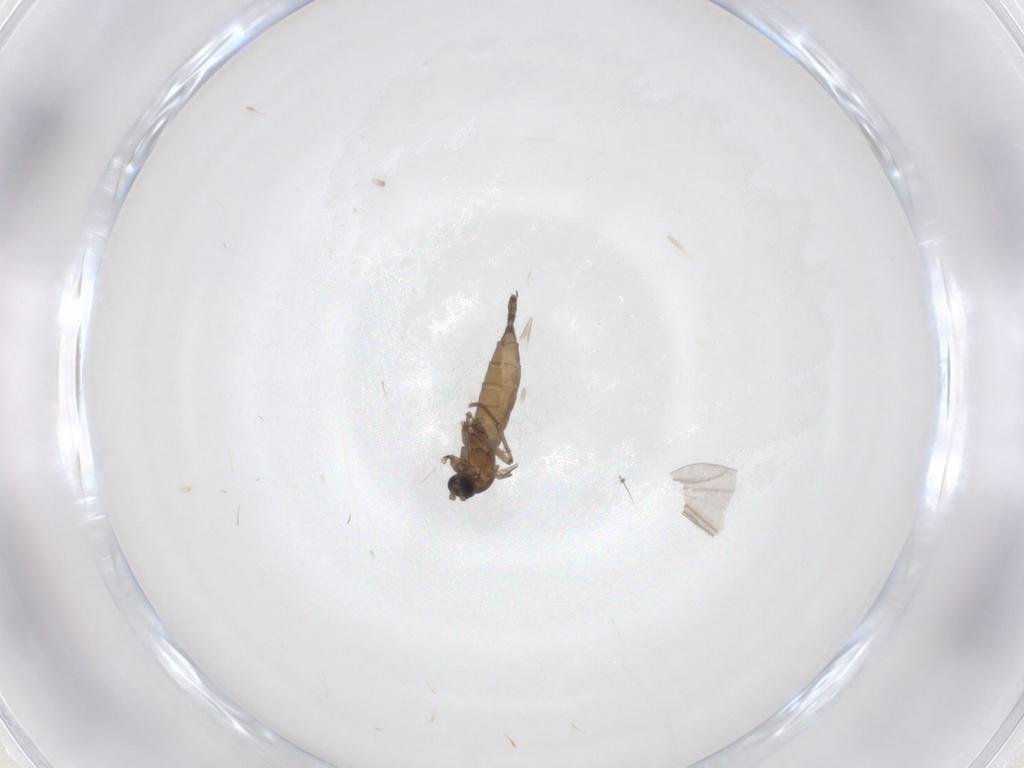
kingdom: Animalia
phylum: Arthropoda
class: Insecta
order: Diptera
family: Sciaridae
